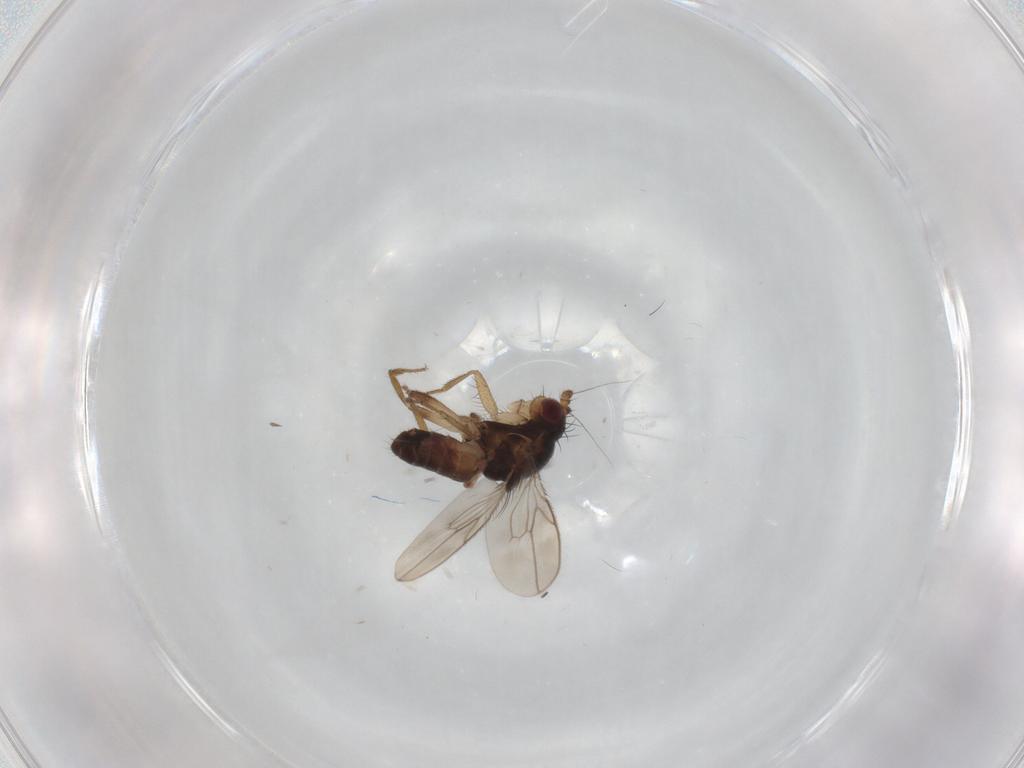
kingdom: Animalia
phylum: Arthropoda
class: Insecta
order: Diptera
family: Sphaeroceridae
